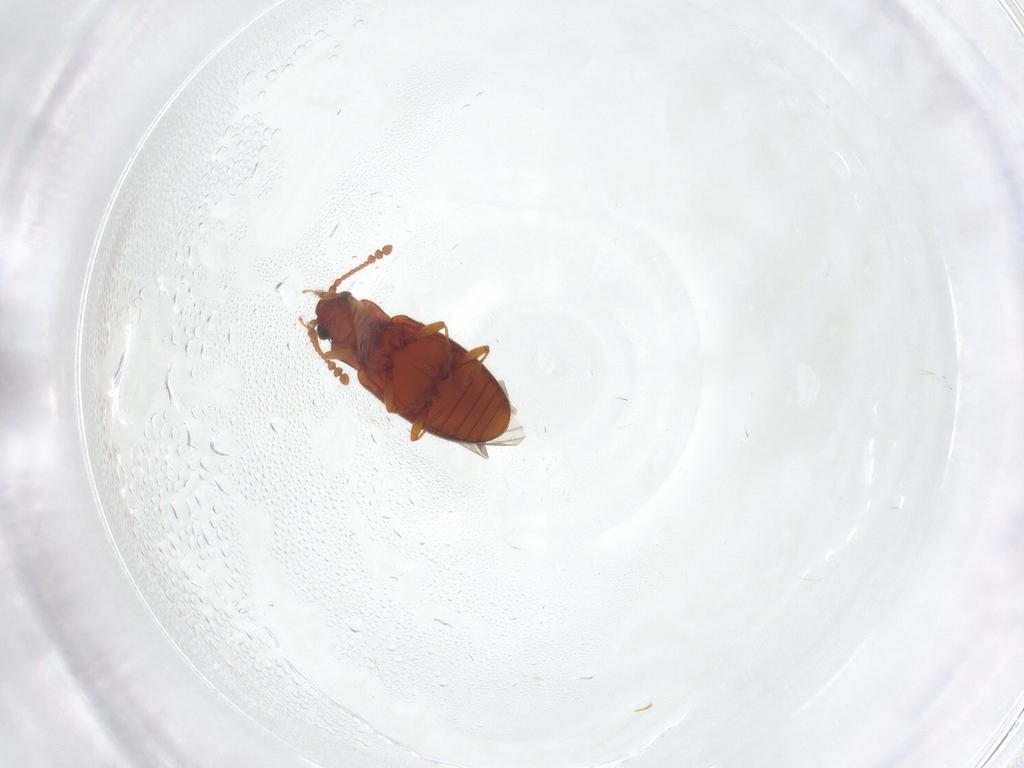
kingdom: Animalia
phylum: Arthropoda
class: Insecta
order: Coleoptera
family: Cryptophagidae
